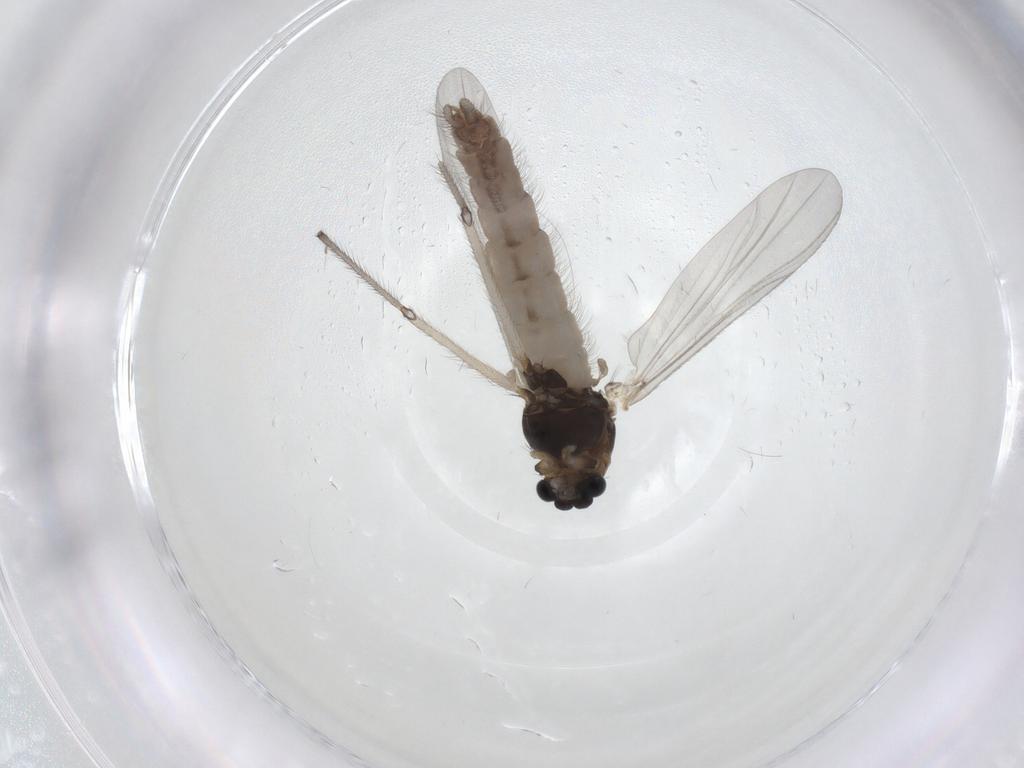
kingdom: Animalia
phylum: Arthropoda
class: Insecta
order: Diptera
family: Chironomidae
